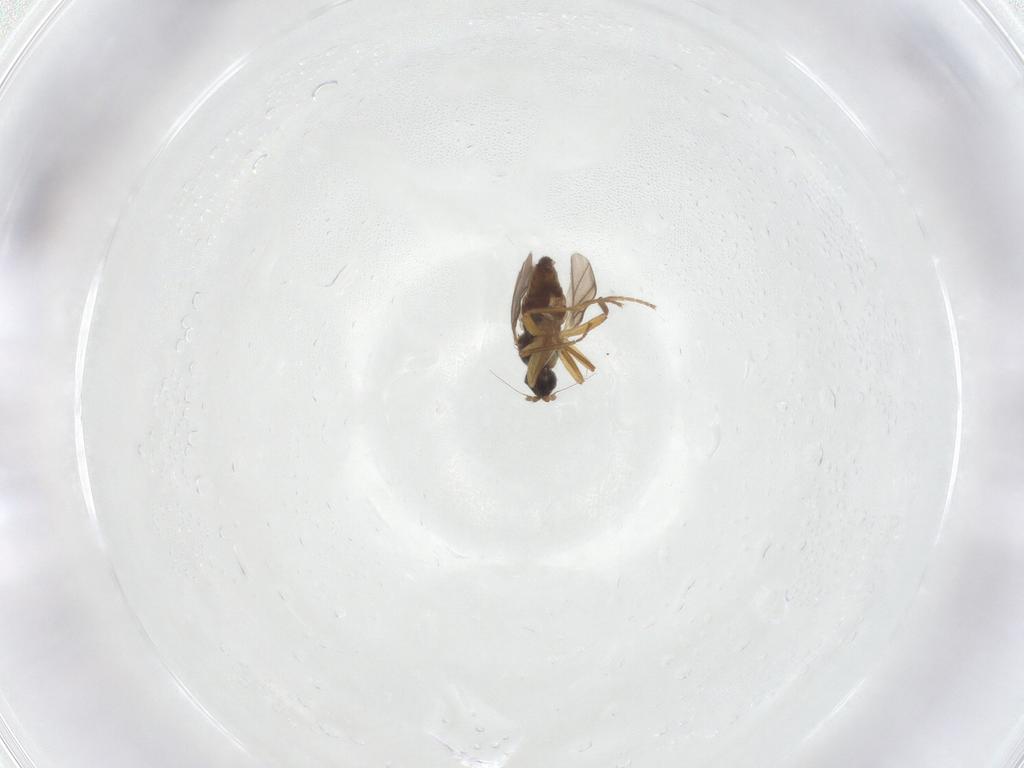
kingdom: Animalia
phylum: Arthropoda
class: Insecta
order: Diptera
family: Hybotidae
